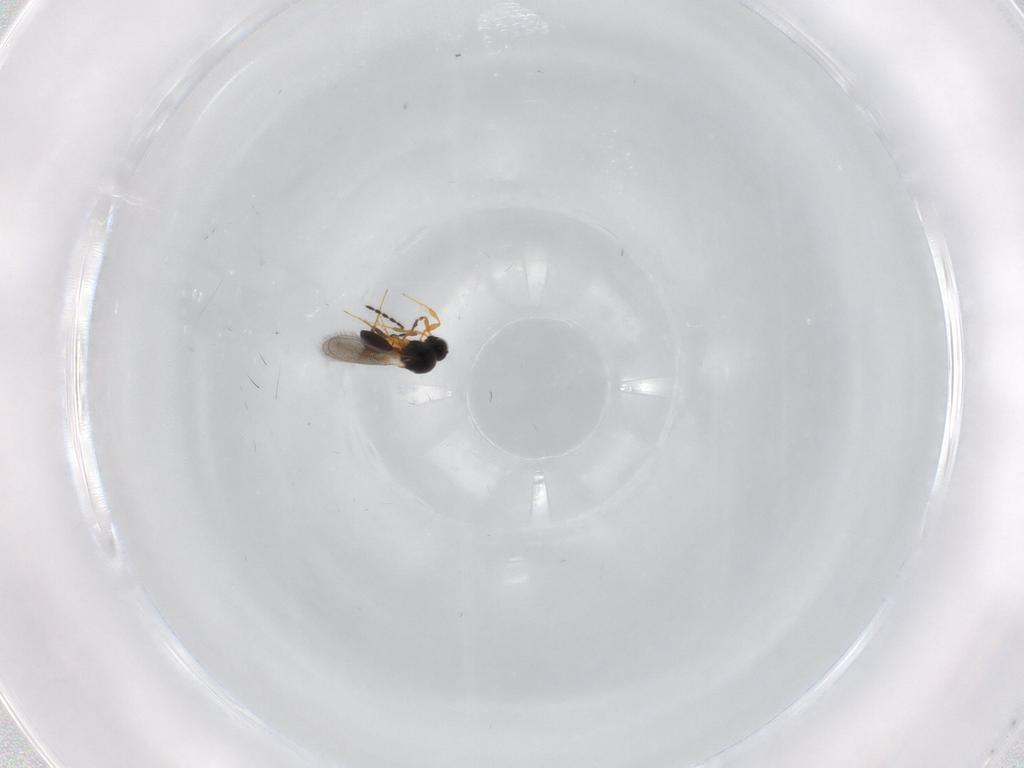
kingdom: Animalia
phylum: Arthropoda
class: Insecta
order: Hymenoptera
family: Platygastridae
